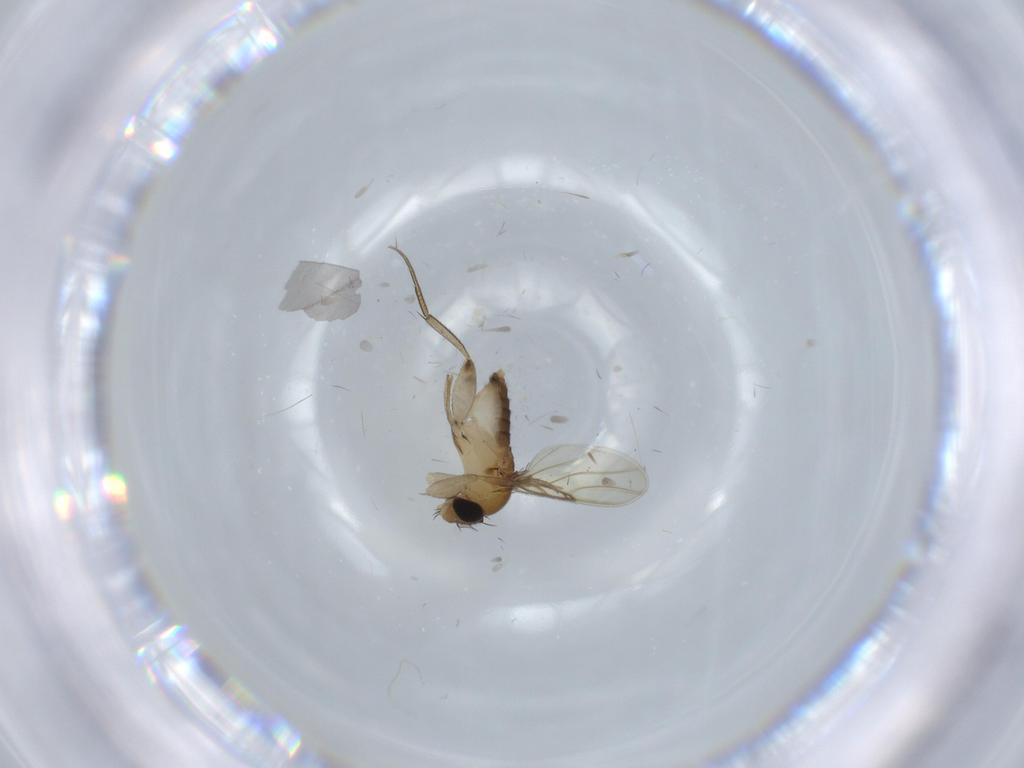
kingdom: Animalia
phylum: Arthropoda
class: Insecta
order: Diptera
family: Phoridae
